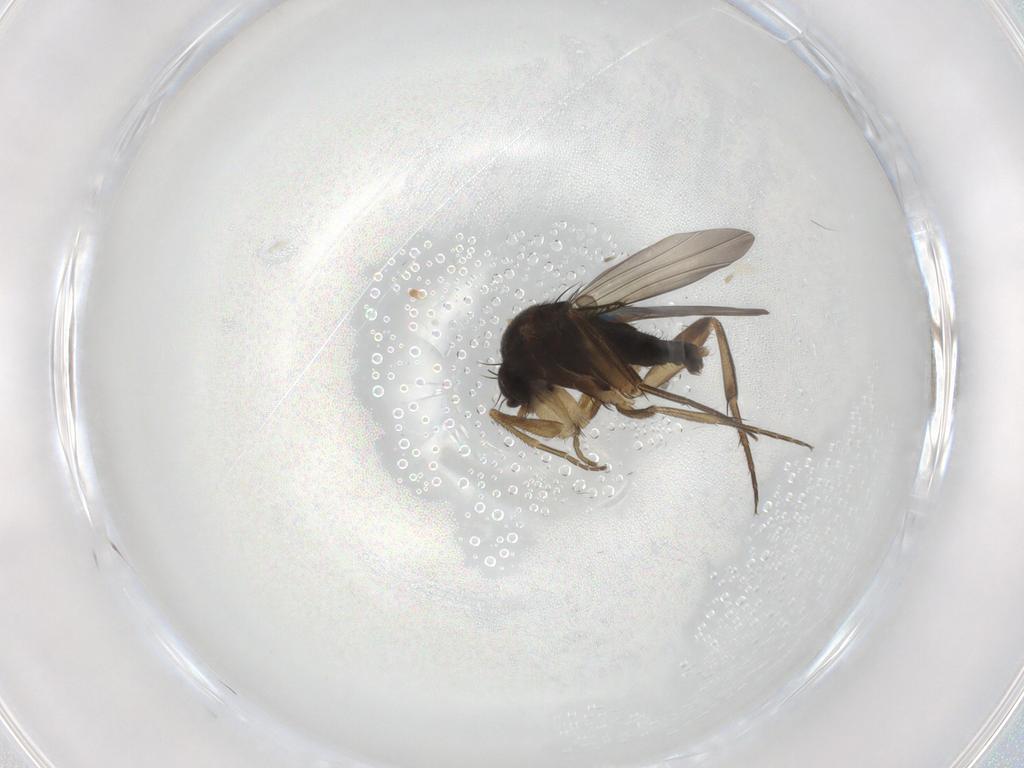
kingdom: Animalia
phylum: Arthropoda
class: Insecta
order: Diptera
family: Phoridae
